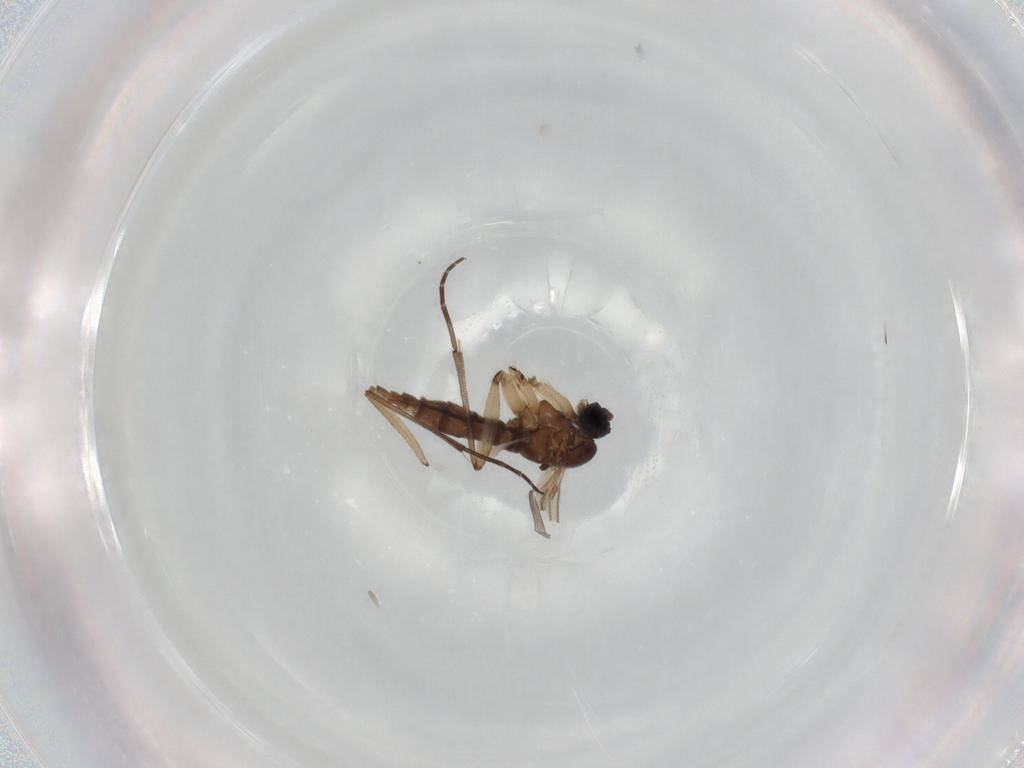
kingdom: Animalia
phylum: Arthropoda
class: Insecta
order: Diptera
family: Sciaridae
